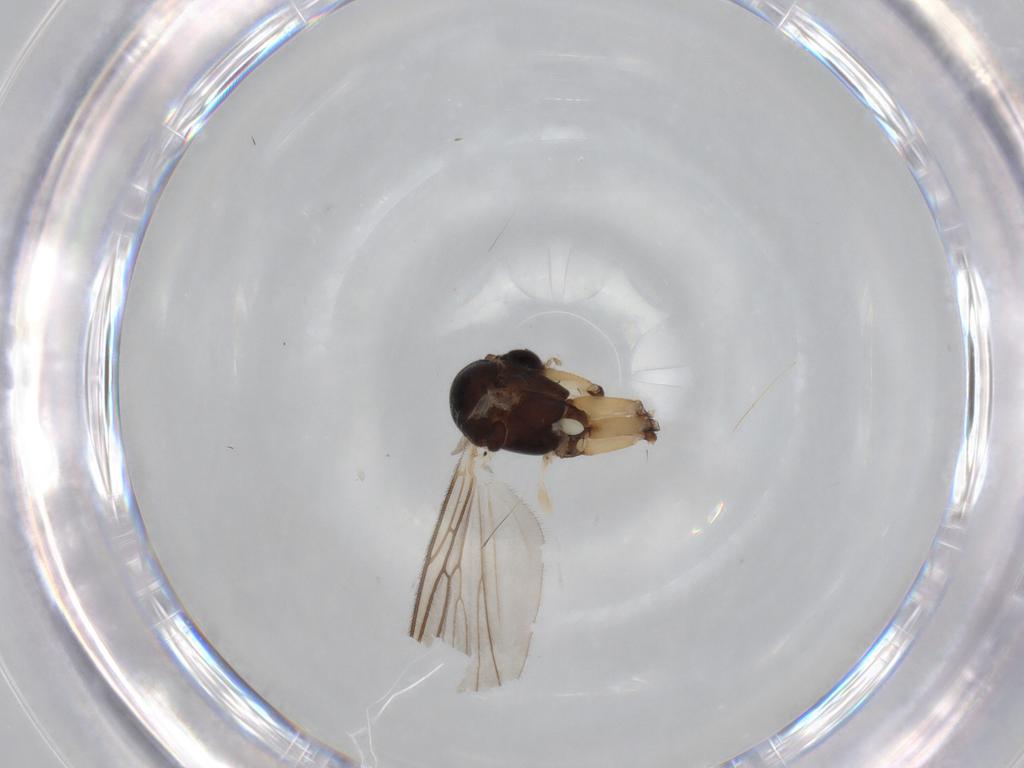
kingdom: Animalia
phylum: Arthropoda
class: Insecta
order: Diptera
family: Mycetophilidae
